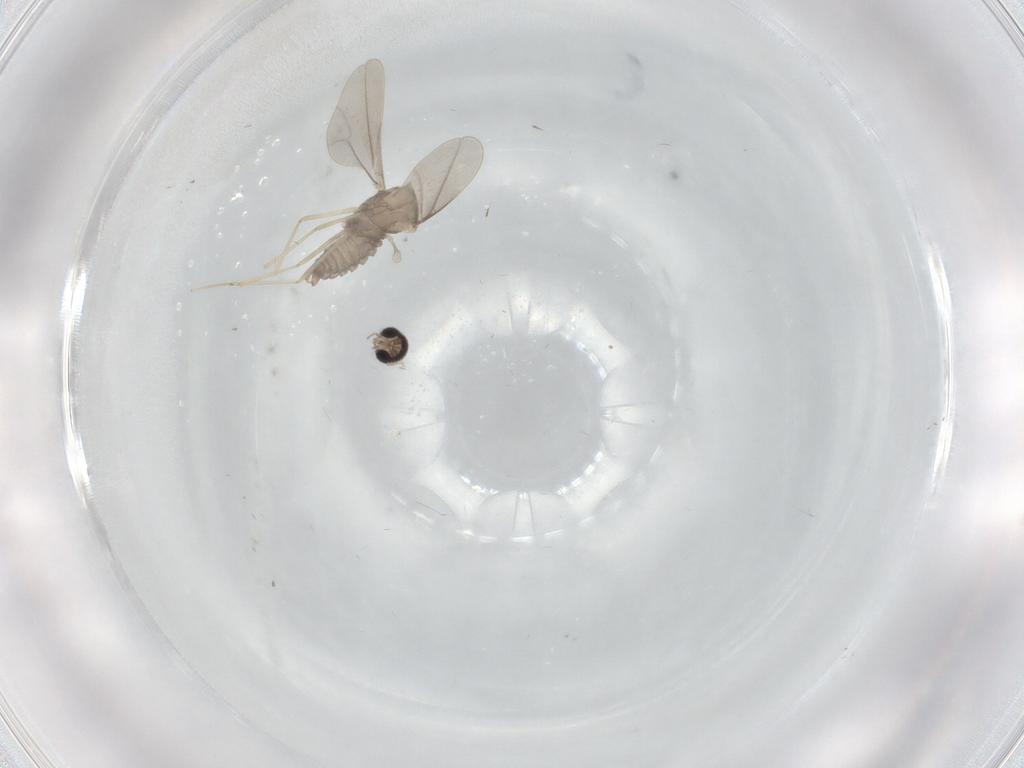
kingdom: Animalia
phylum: Arthropoda
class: Insecta
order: Diptera
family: Cecidomyiidae
